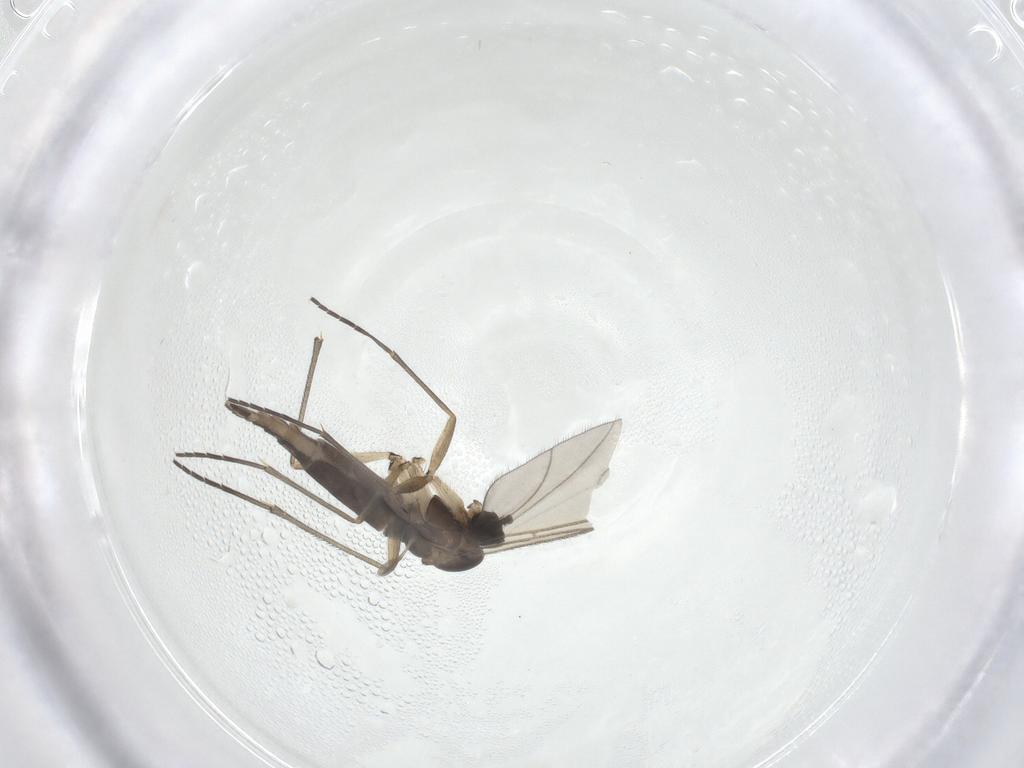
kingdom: Animalia
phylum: Arthropoda
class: Insecta
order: Diptera
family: Sciaridae
